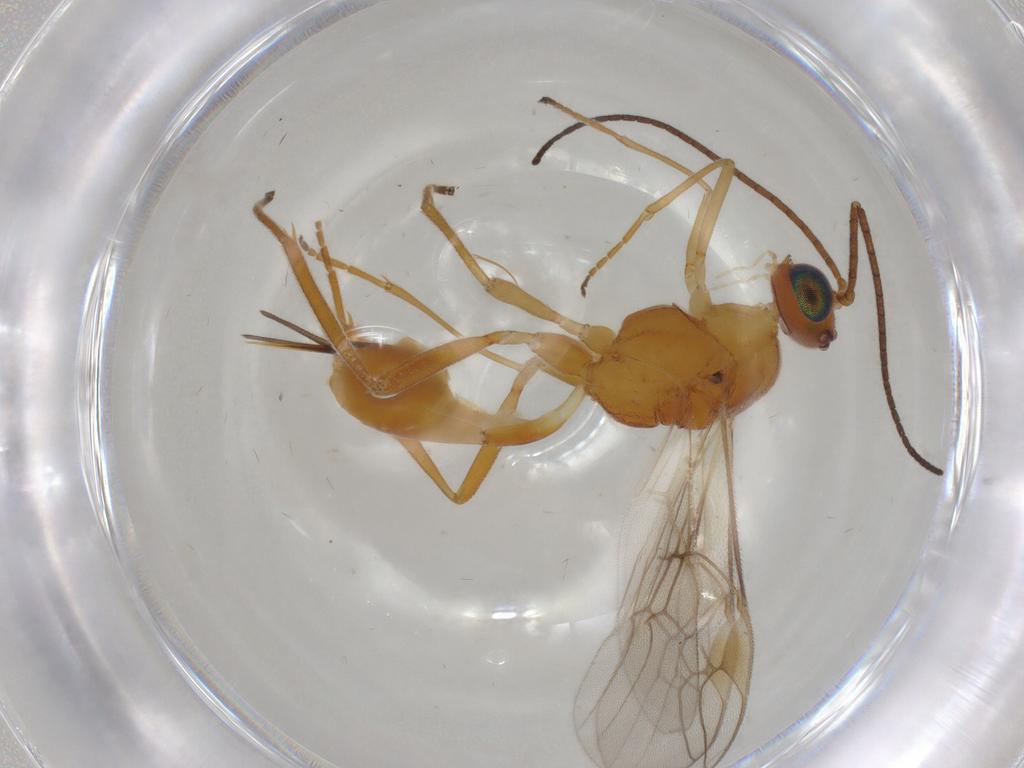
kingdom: Animalia
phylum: Arthropoda
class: Insecta
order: Hymenoptera
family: Braconidae
